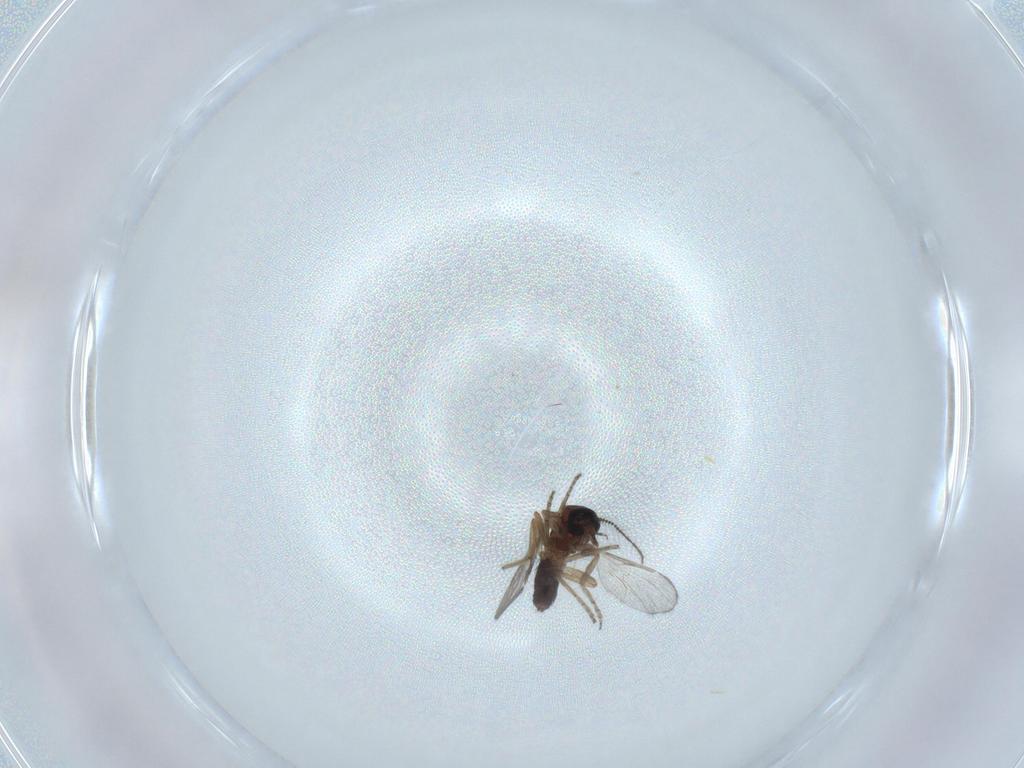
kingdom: Animalia
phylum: Arthropoda
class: Insecta
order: Diptera
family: Ceratopogonidae
